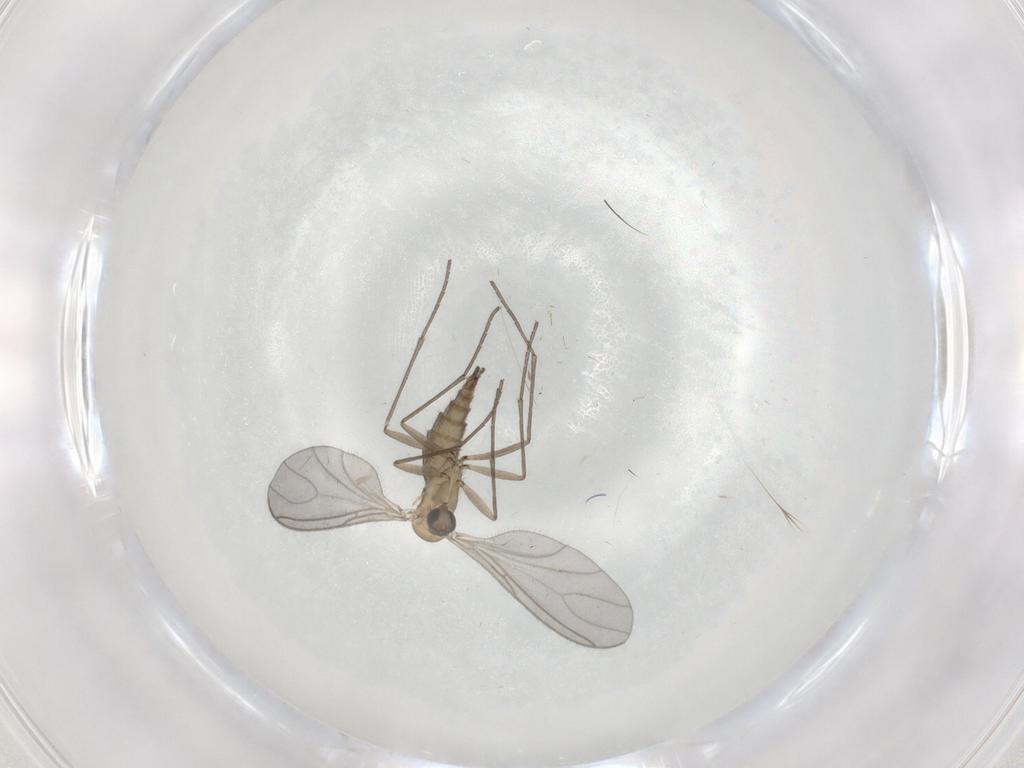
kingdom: Animalia
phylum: Arthropoda
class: Insecta
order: Diptera
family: Sciaridae
